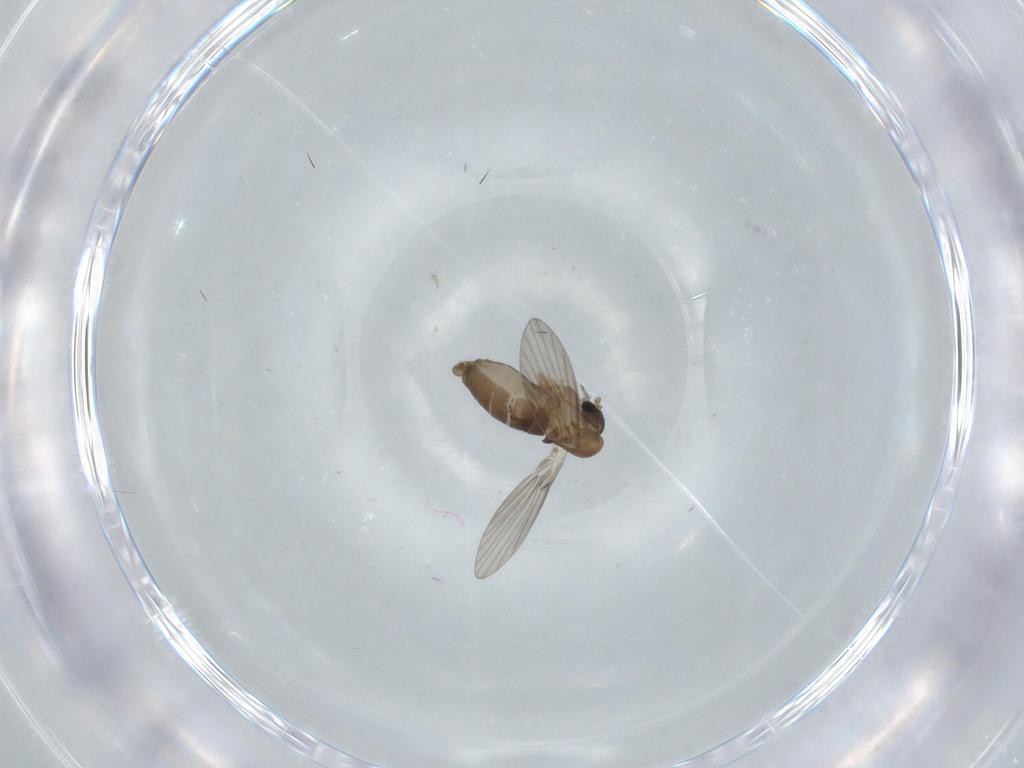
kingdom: Animalia
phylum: Arthropoda
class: Insecta
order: Diptera
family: Psychodidae
